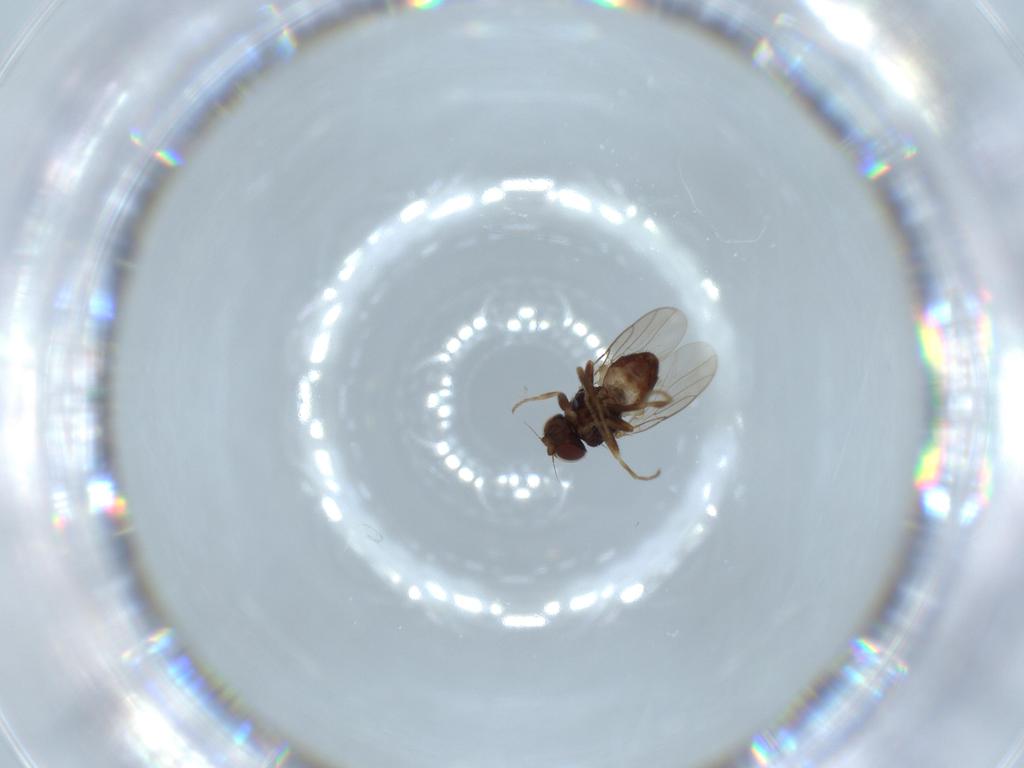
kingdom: Animalia
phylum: Arthropoda
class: Insecta
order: Diptera
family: Chloropidae
